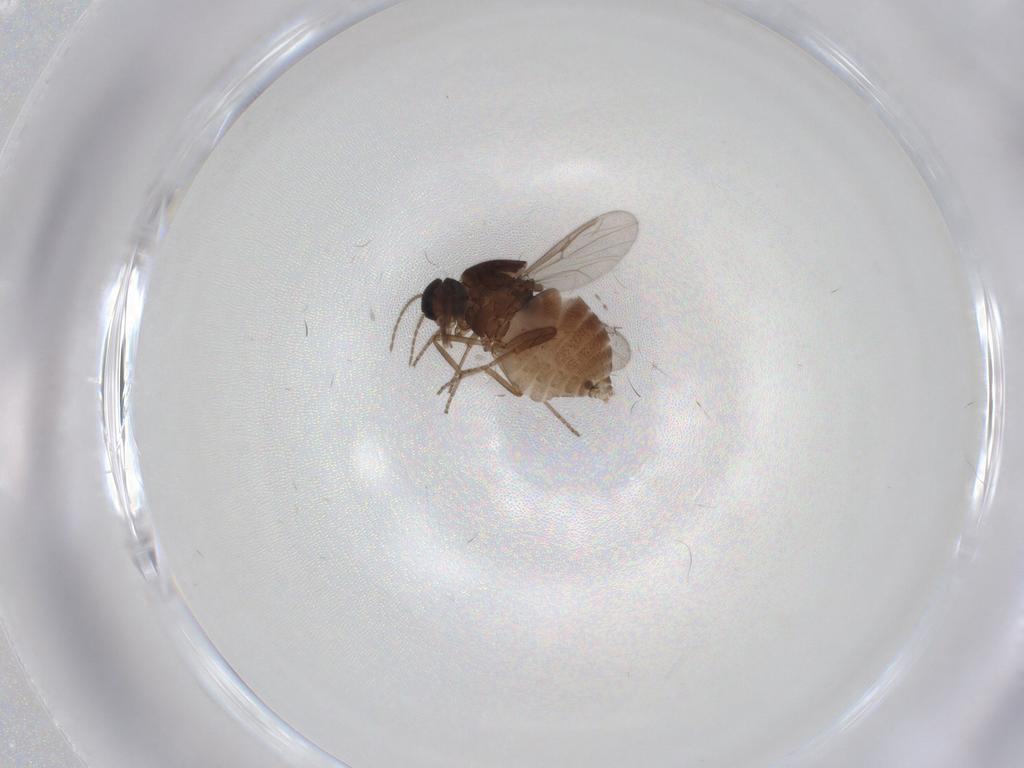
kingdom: Animalia
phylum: Arthropoda
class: Insecta
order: Diptera
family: Ceratopogonidae
